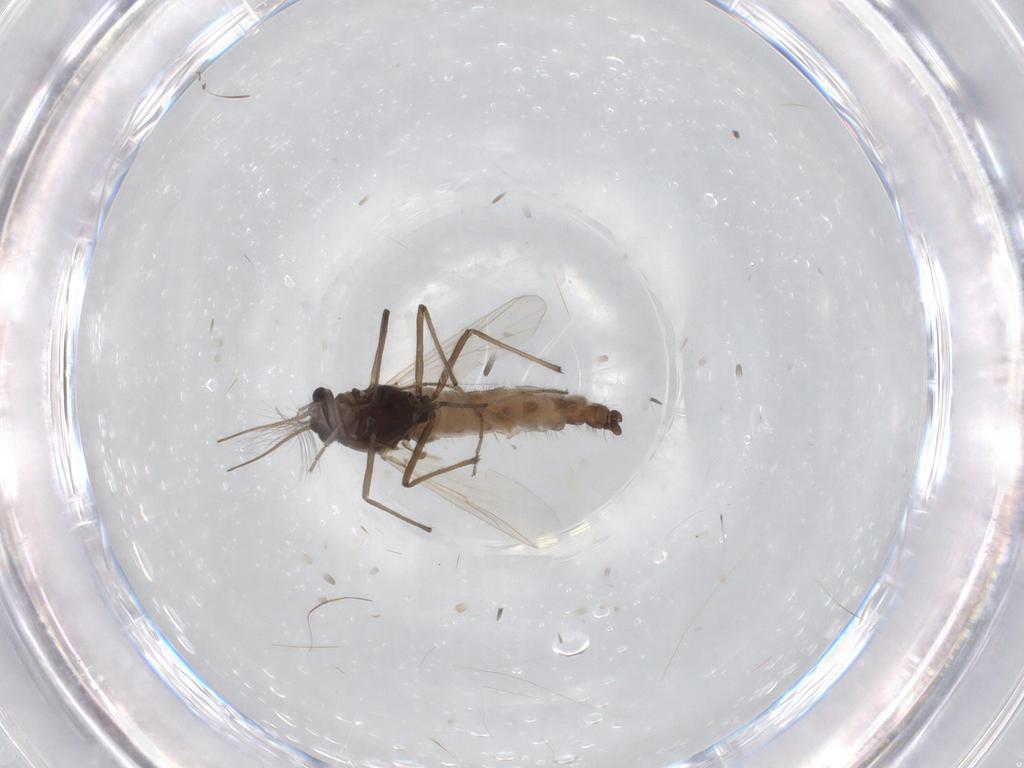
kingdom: Animalia
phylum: Arthropoda
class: Insecta
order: Diptera
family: Chironomidae
